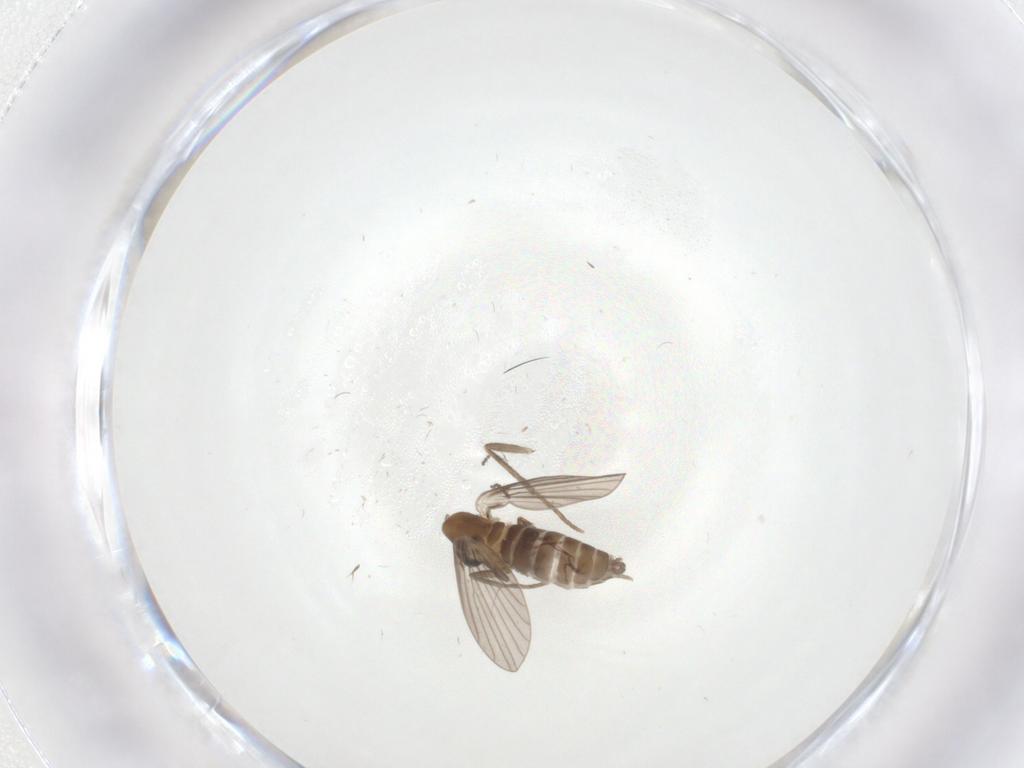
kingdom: Animalia
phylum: Arthropoda
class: Insecta
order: Diptera
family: Psychodidae
